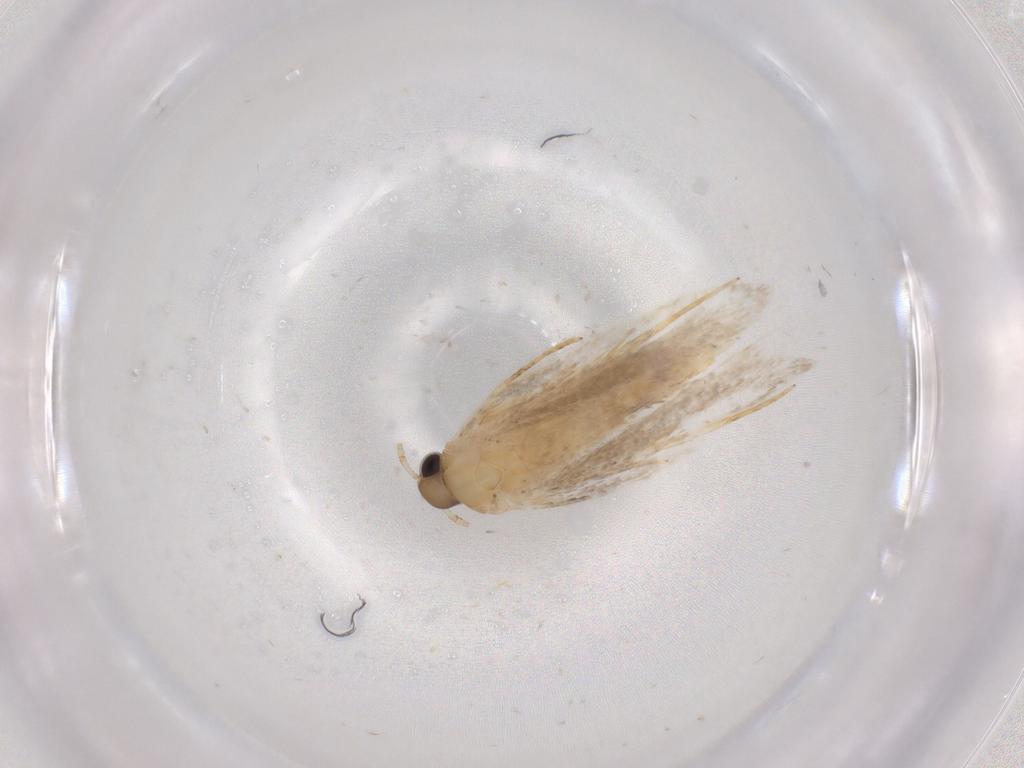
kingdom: Animalia
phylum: Arthropoda
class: Insecta
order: Lepidoptera
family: Autostichidae
